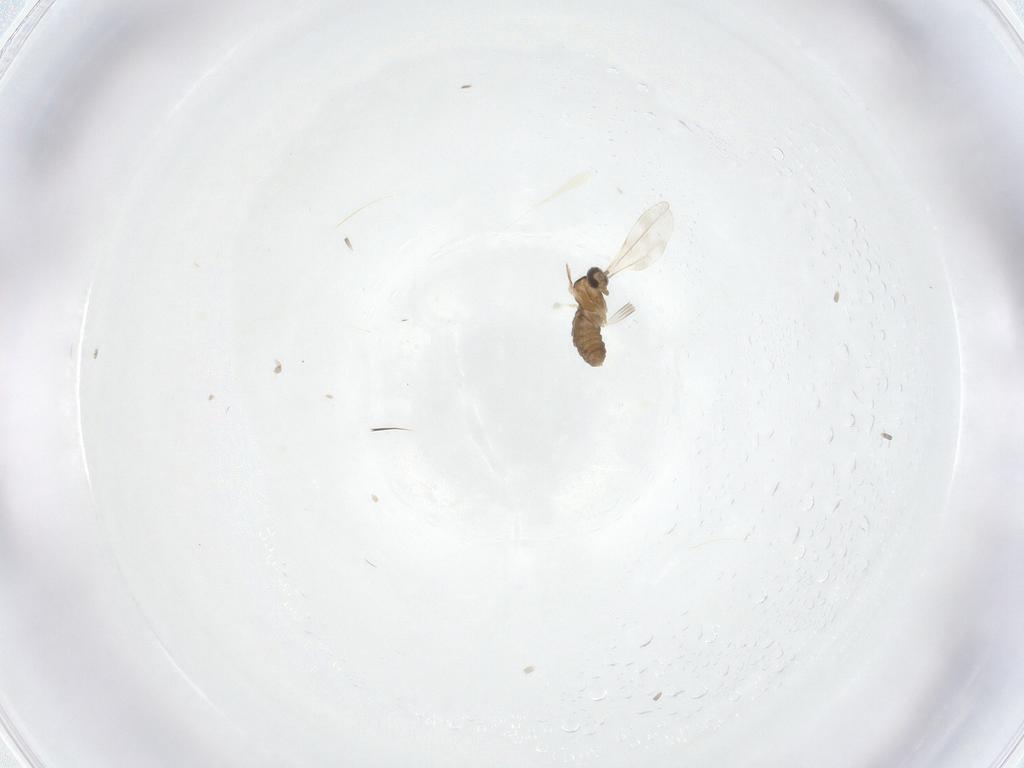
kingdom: Animalia
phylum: Arthropoda
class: Insecta
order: Diptera
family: Cecidomyiidae
